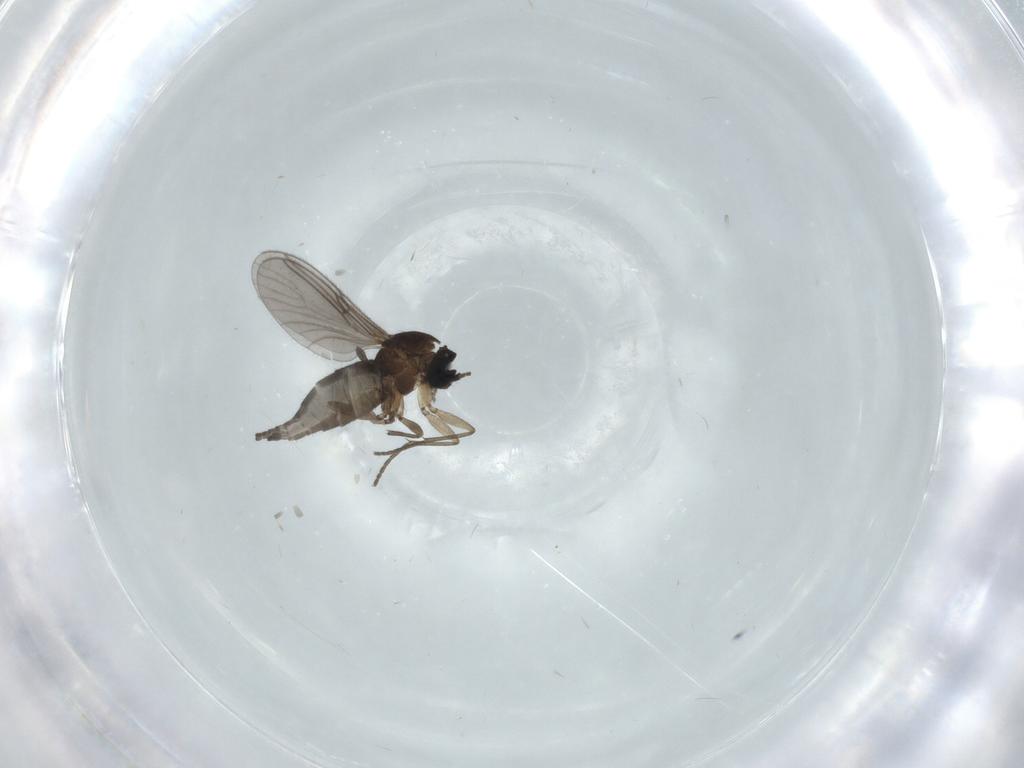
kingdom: Animalia
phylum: Arthropoda
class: Insecta
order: Diptera
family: Sciaridae
